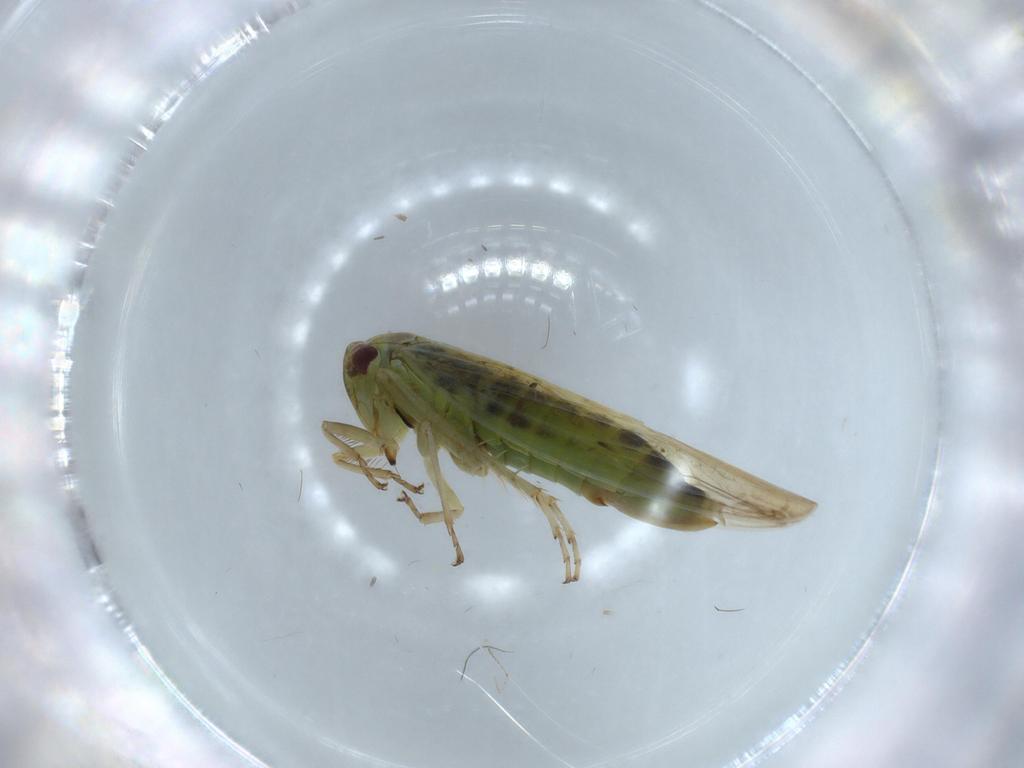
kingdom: Animalia
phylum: Arthropoda
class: Insecta
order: Hemiptera
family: Cicadellidae
